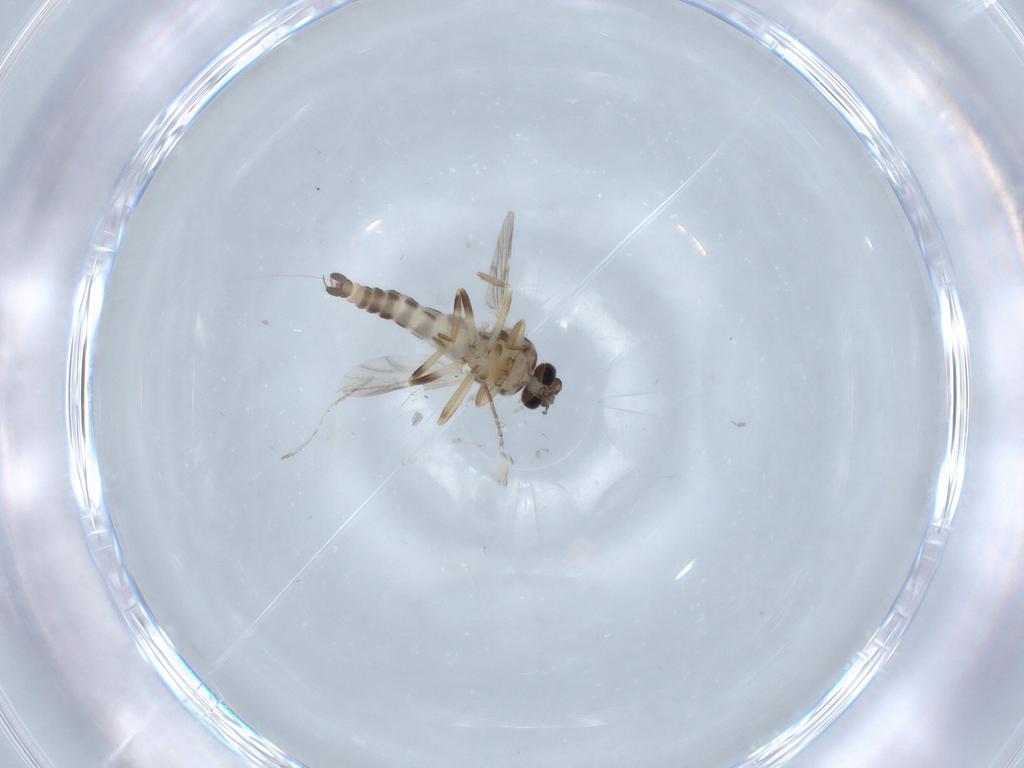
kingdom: Animalia
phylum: Arthropoda
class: Insecta
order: Diptera
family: Chironomidae
